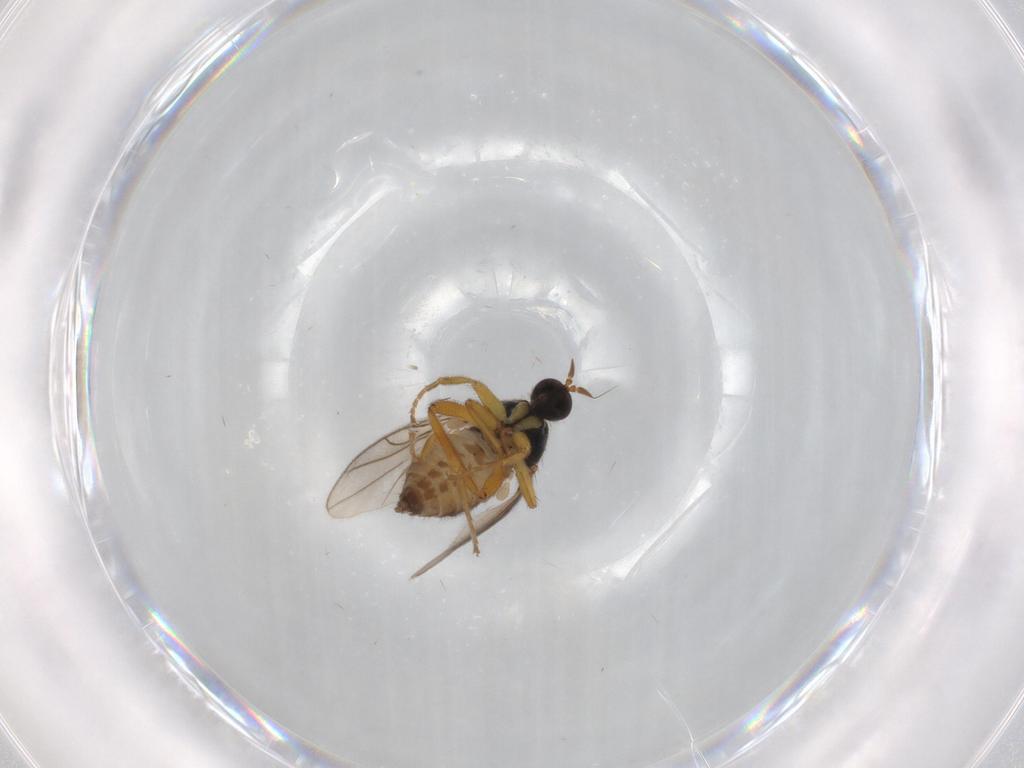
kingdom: Animalia
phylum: Arthropoda
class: Insecta
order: Diptera
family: Hybotidae
